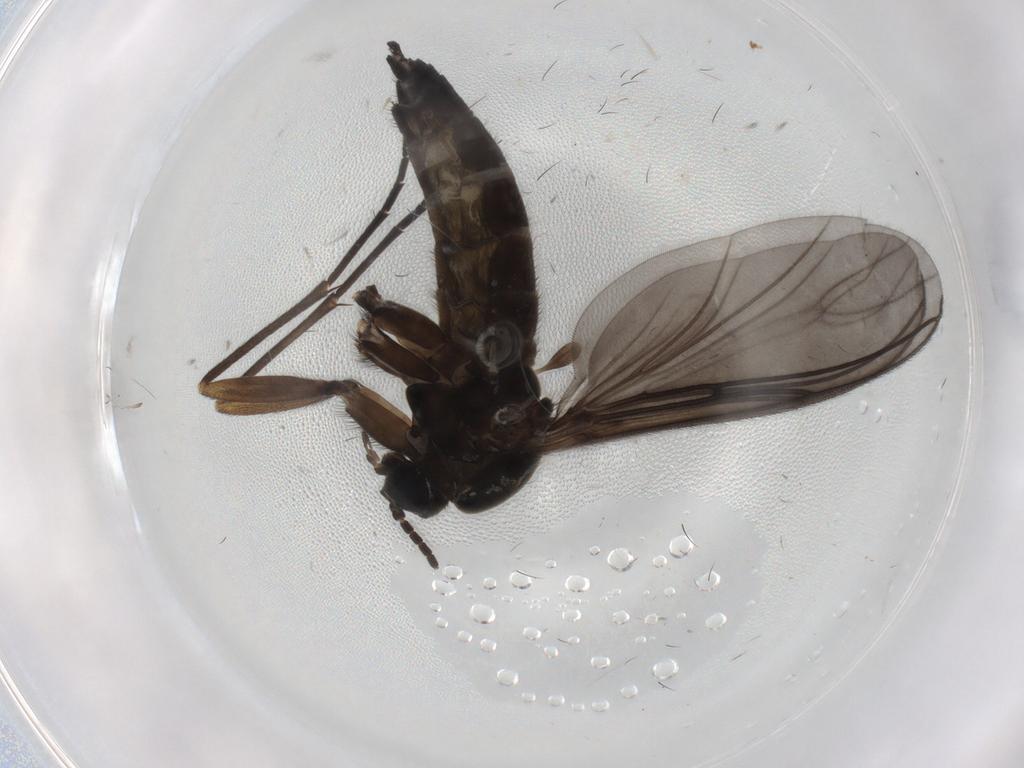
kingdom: Animalia
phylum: Arthropoda
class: Insecta
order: Diptera
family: Sciaridae
